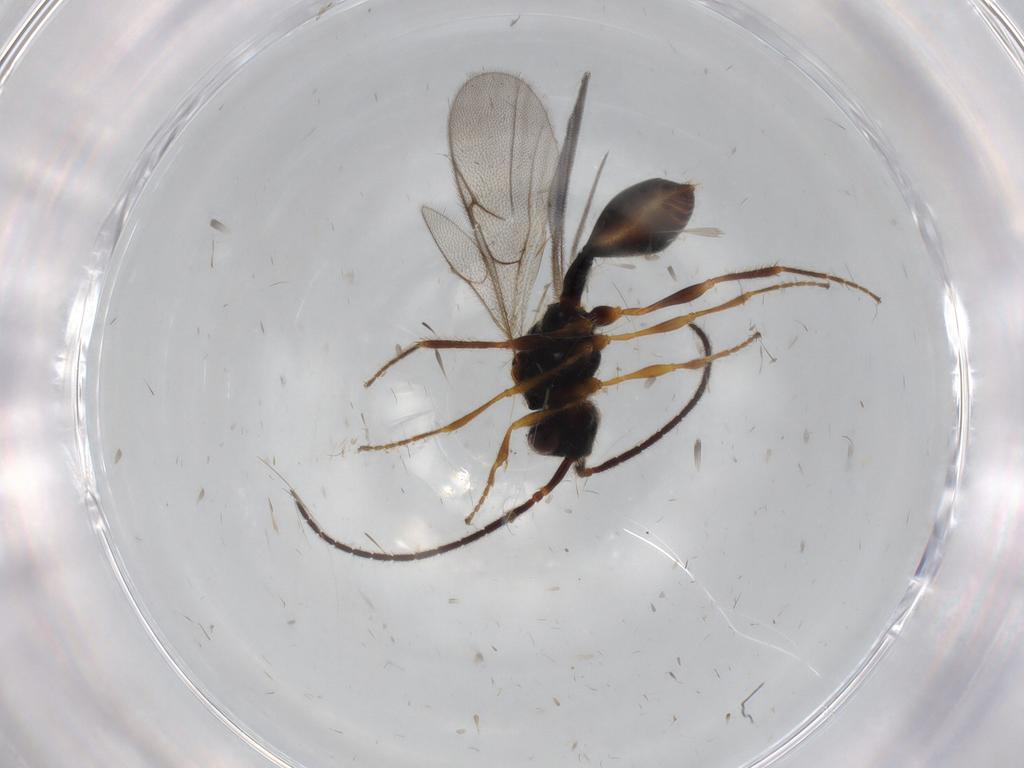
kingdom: Animalia
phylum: Arthropoda
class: Insecta
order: Hymenoptera
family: Diapriidae
